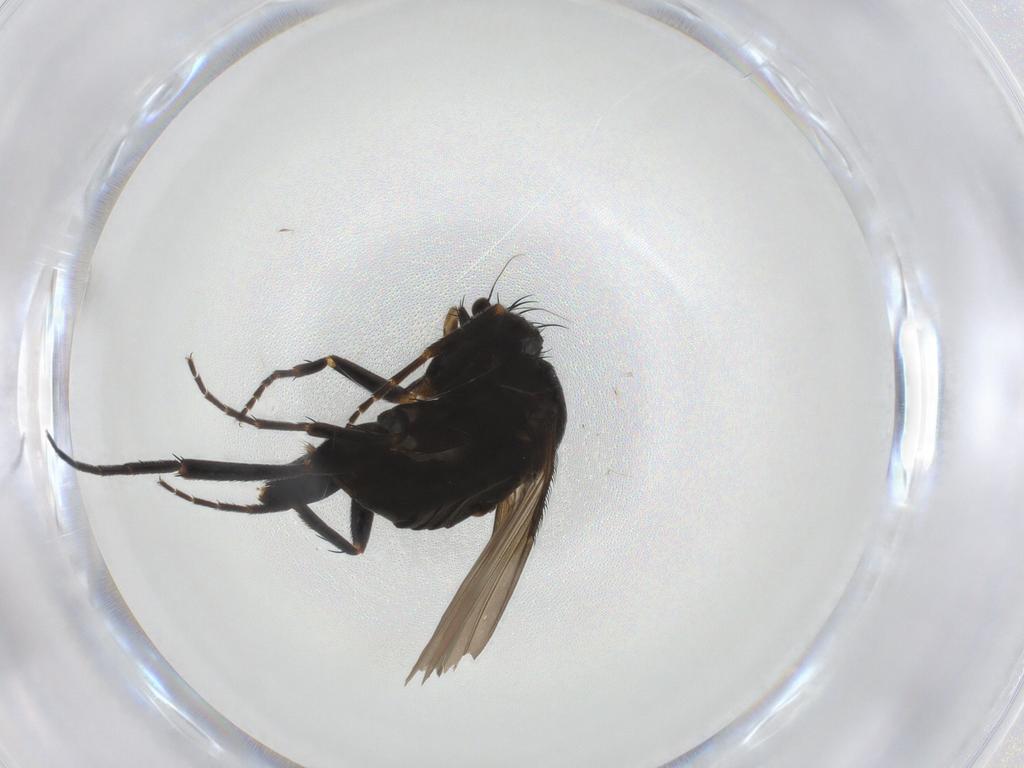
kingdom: Animalia
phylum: Arthropoda
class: Insecta
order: Diptera
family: Phoridae
